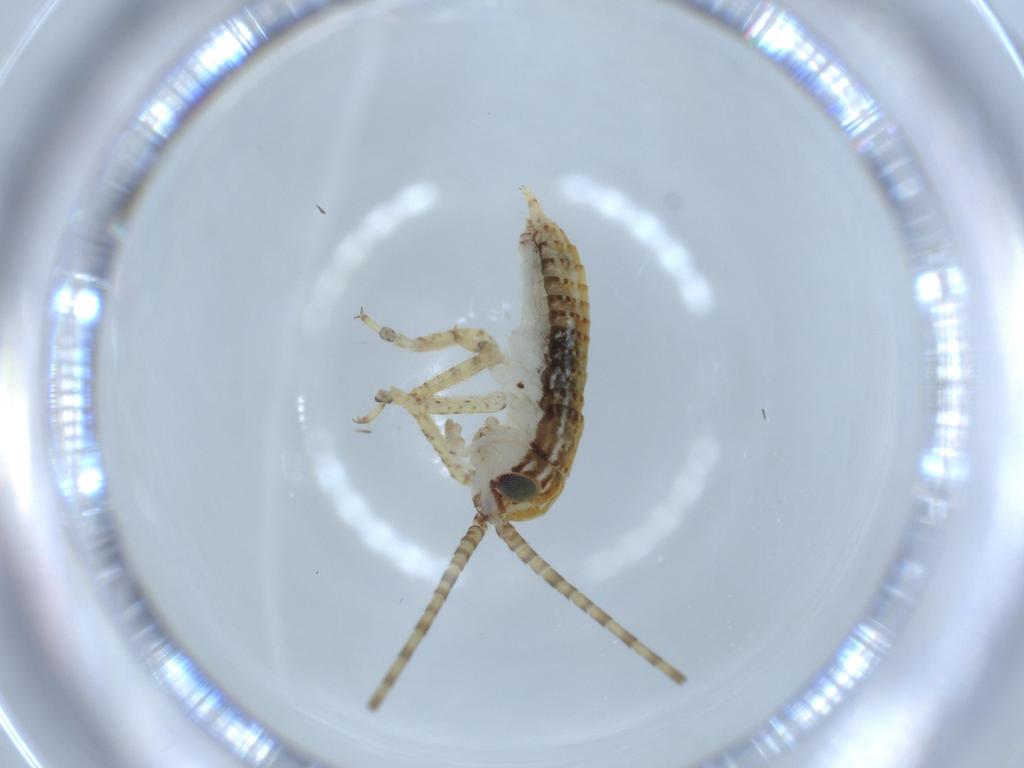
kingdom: Animalia
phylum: Arthropoda
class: Insecta
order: Orthoptera
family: Gryllidae
